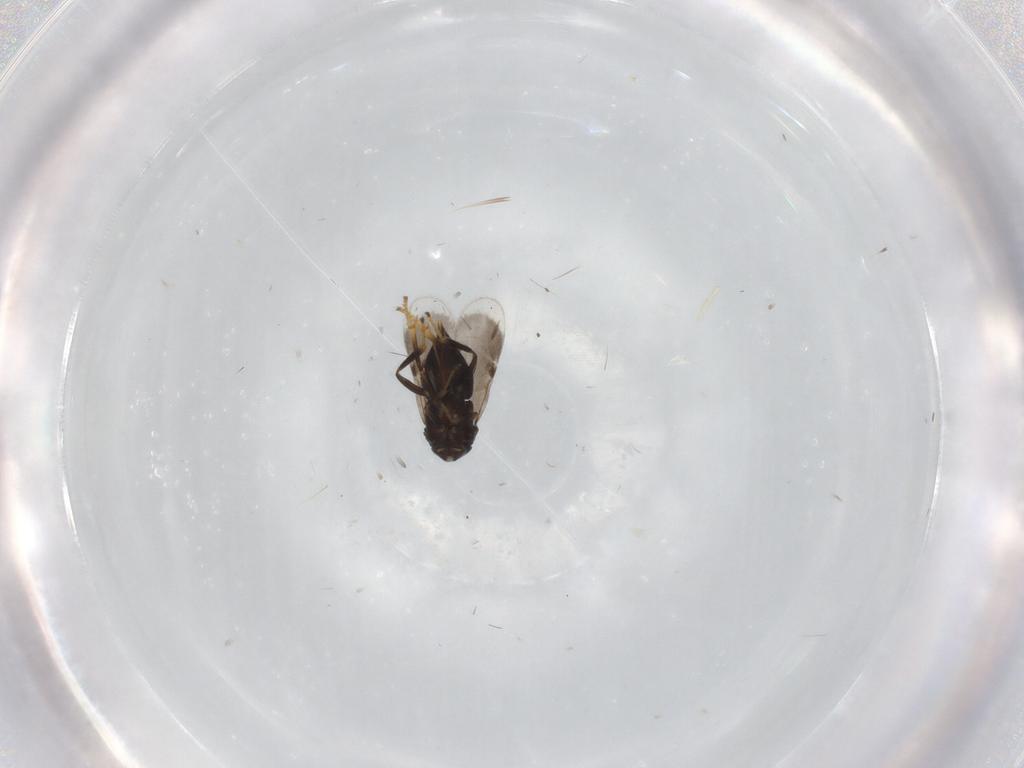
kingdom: Animalia
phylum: Arthropoda
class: Insecta
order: Hymenoptera
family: Encyrtidae
